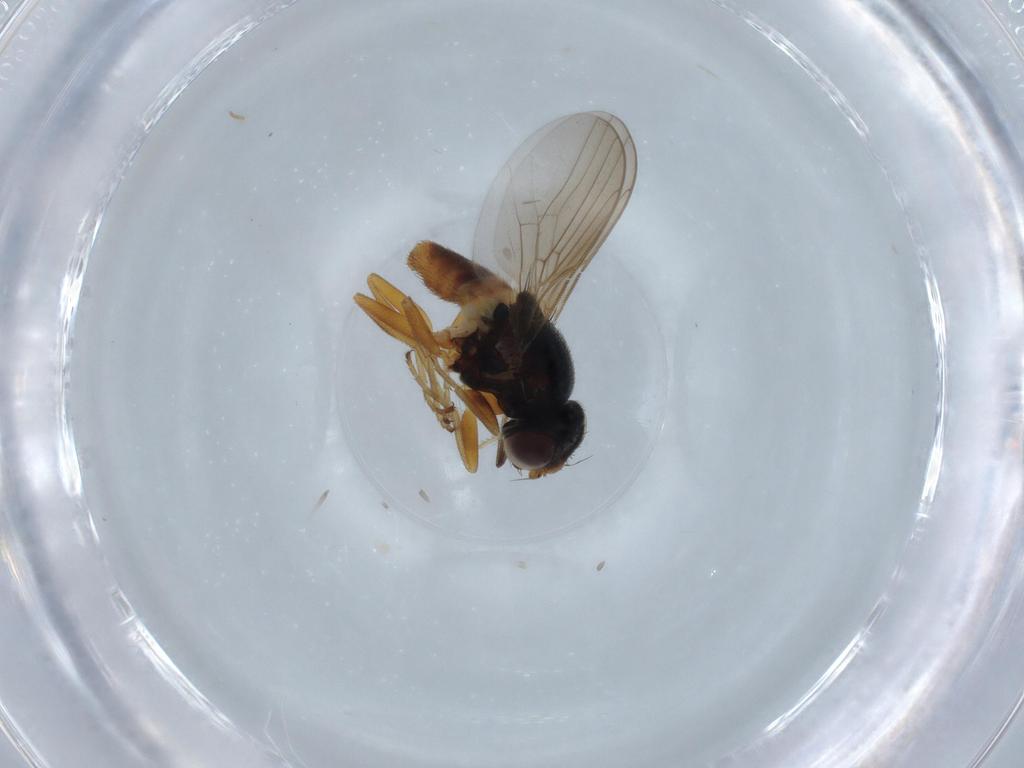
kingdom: Animalia
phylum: Arthropoda
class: Insecta
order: Diptera
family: Chloropidae
